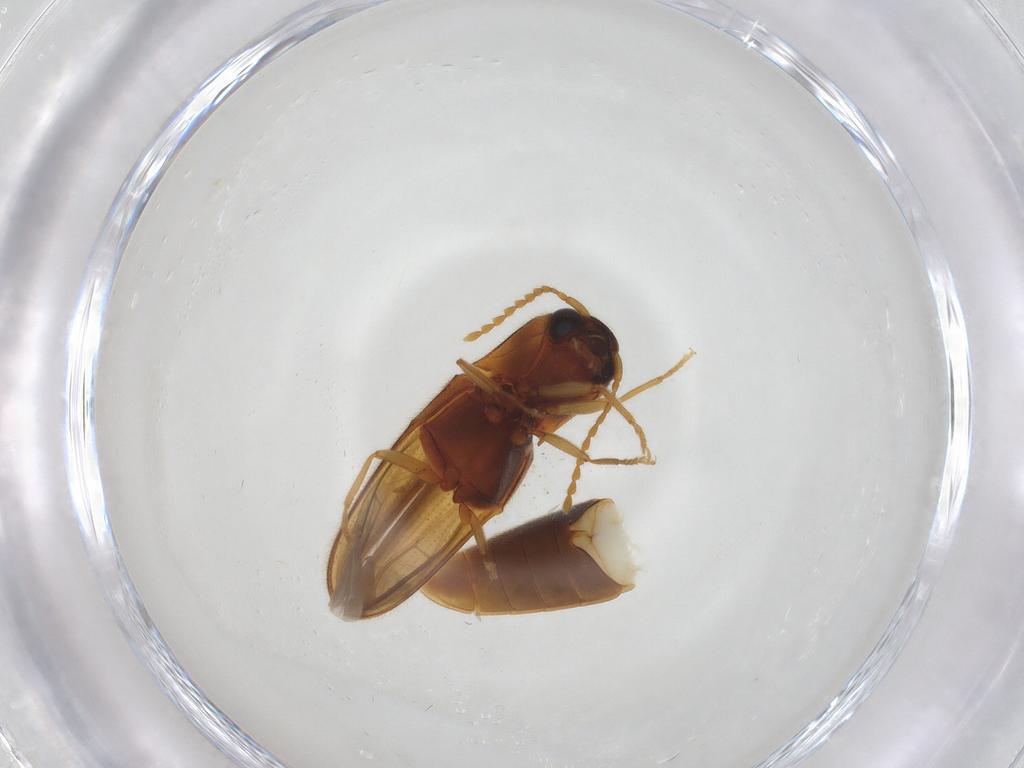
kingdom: Animalia
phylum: Arthropoda
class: Insecta
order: Coleoptera
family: Elateridae
